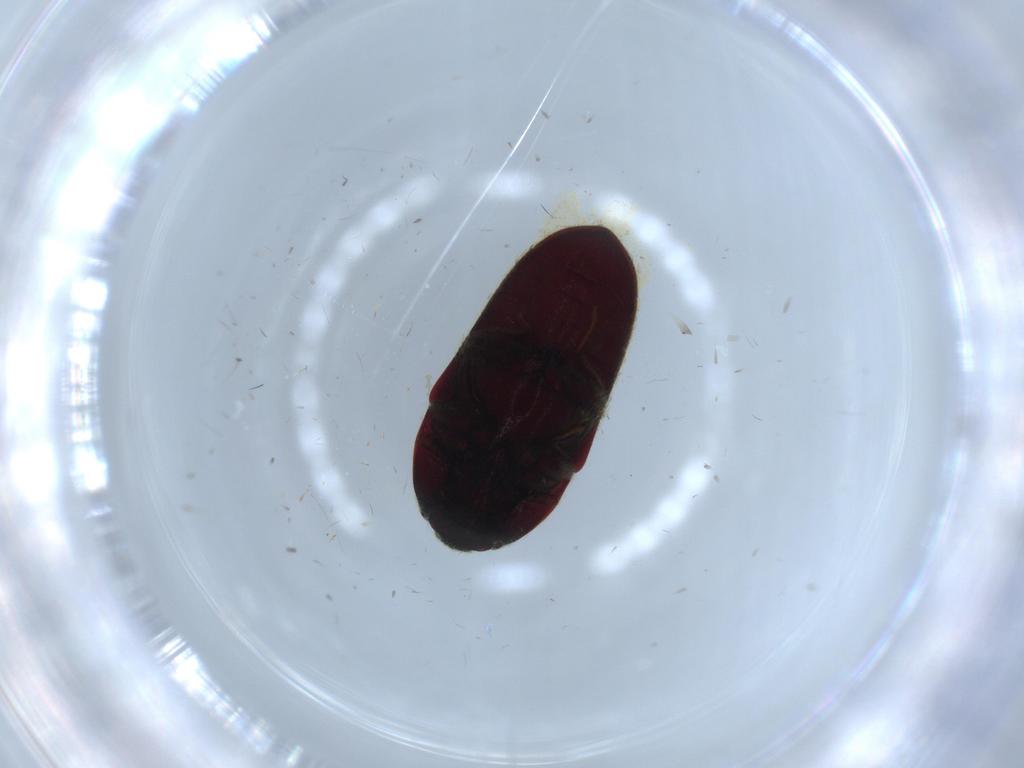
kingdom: Animalia
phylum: Arthropoda
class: Insecta
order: Coleoptera
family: Throscidae
